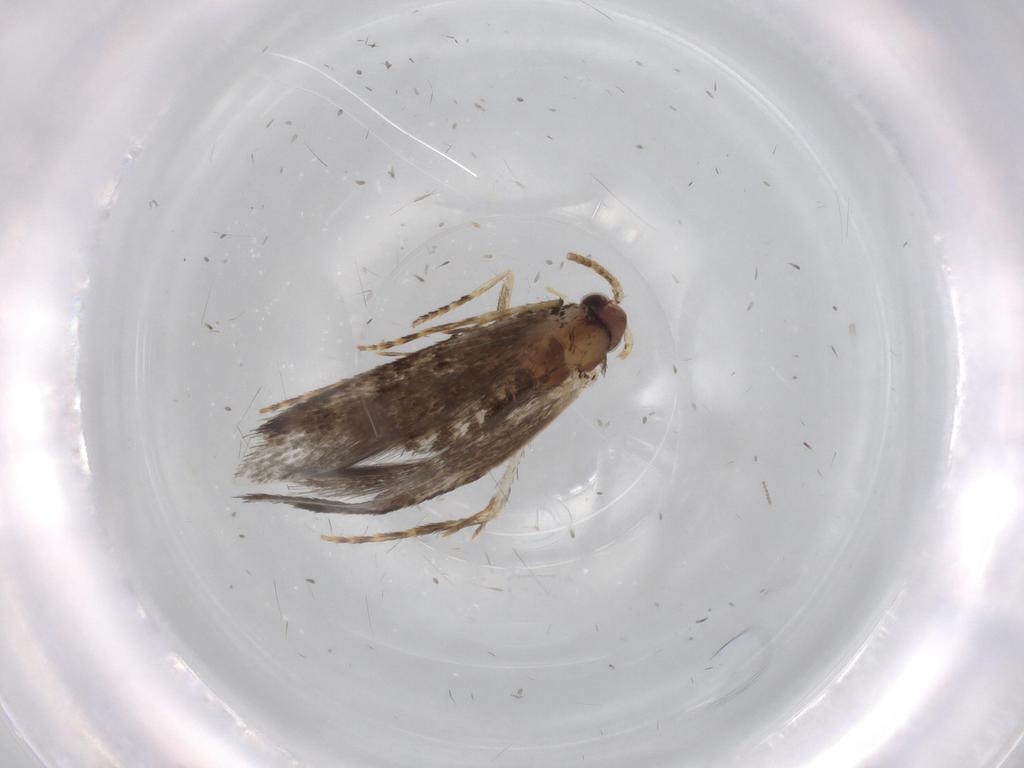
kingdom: Animalia
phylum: Arthropoda
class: Insecta
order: Lepidoptera
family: Tineidae
